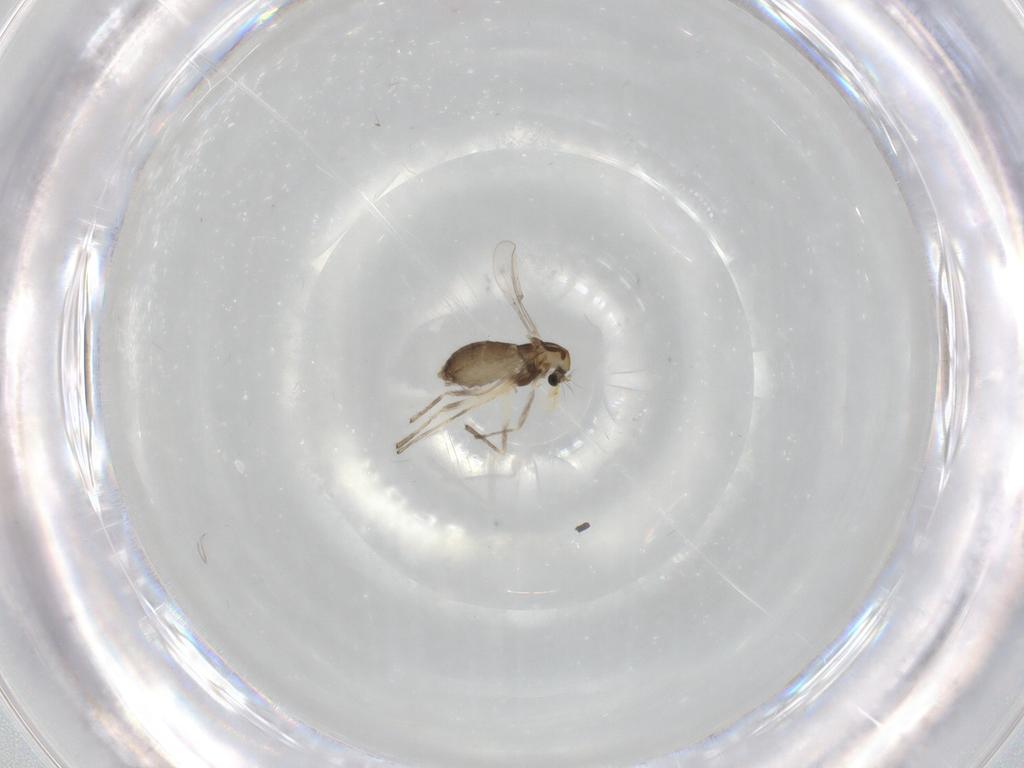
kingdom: Animalia
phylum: Arthropoda
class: Insecta
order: Diptera
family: Chironomidae
